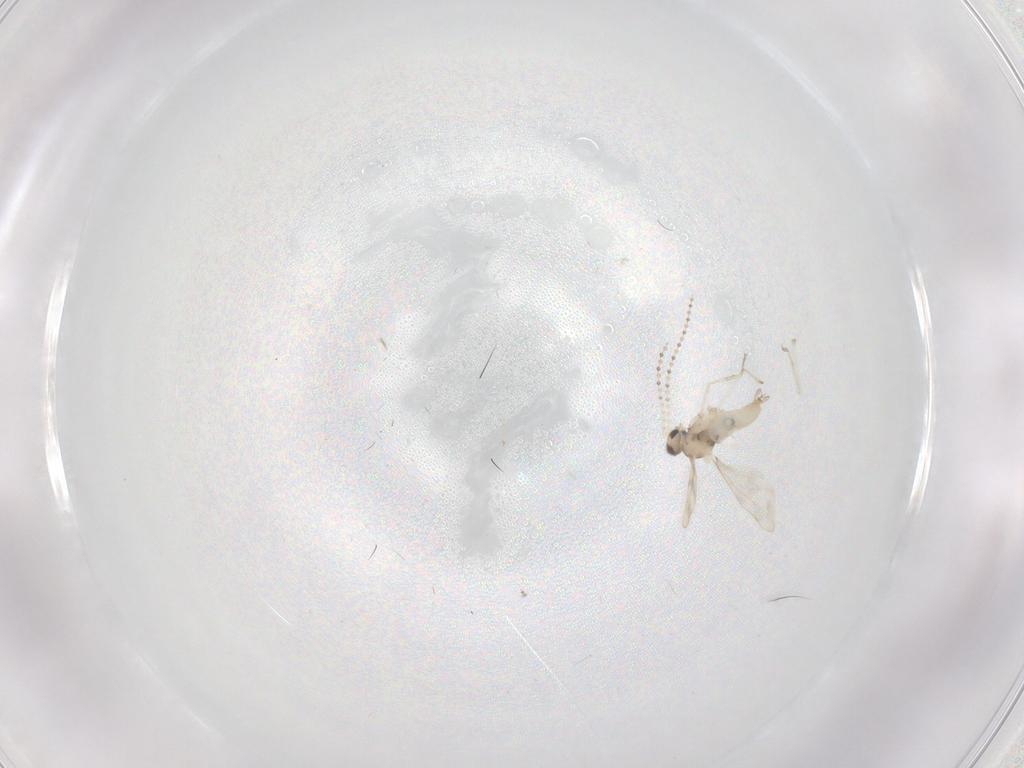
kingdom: Animalia
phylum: Arthropoda
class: Insecta
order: Diptera
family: Cecidomyiidae
